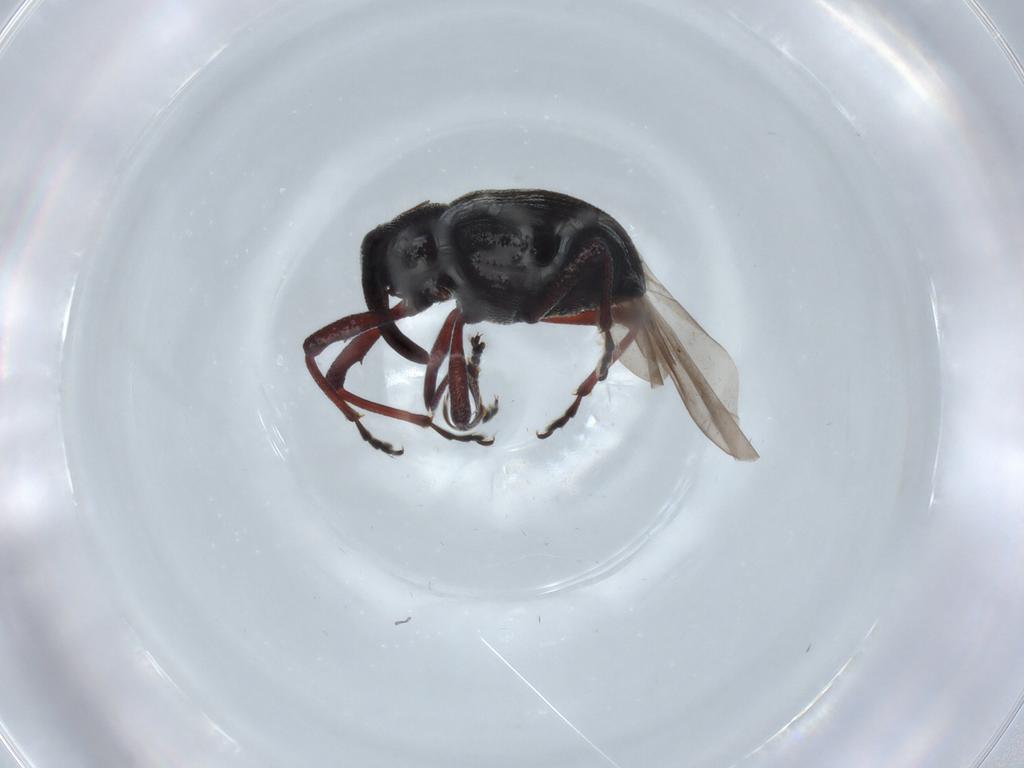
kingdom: Animalia
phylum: Arthropoda
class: Insecta
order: Coleoptera
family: Curculionidae
